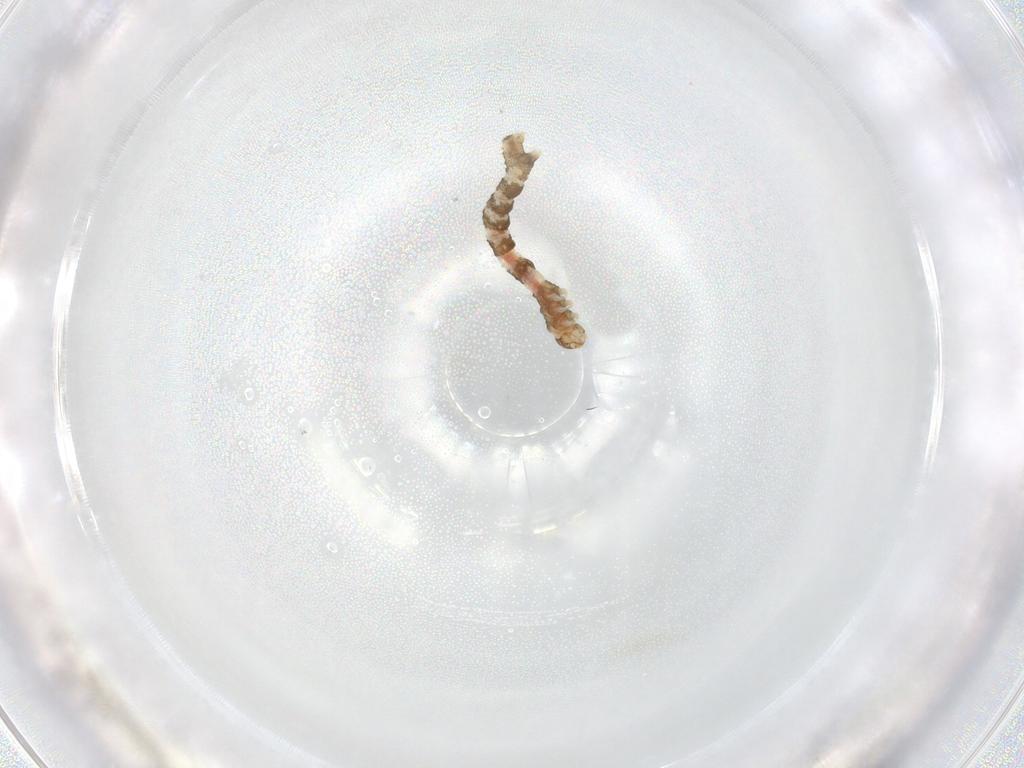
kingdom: Animalia
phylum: Arthropoda
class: Insecta
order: Lepidoptera
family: Geometridae
